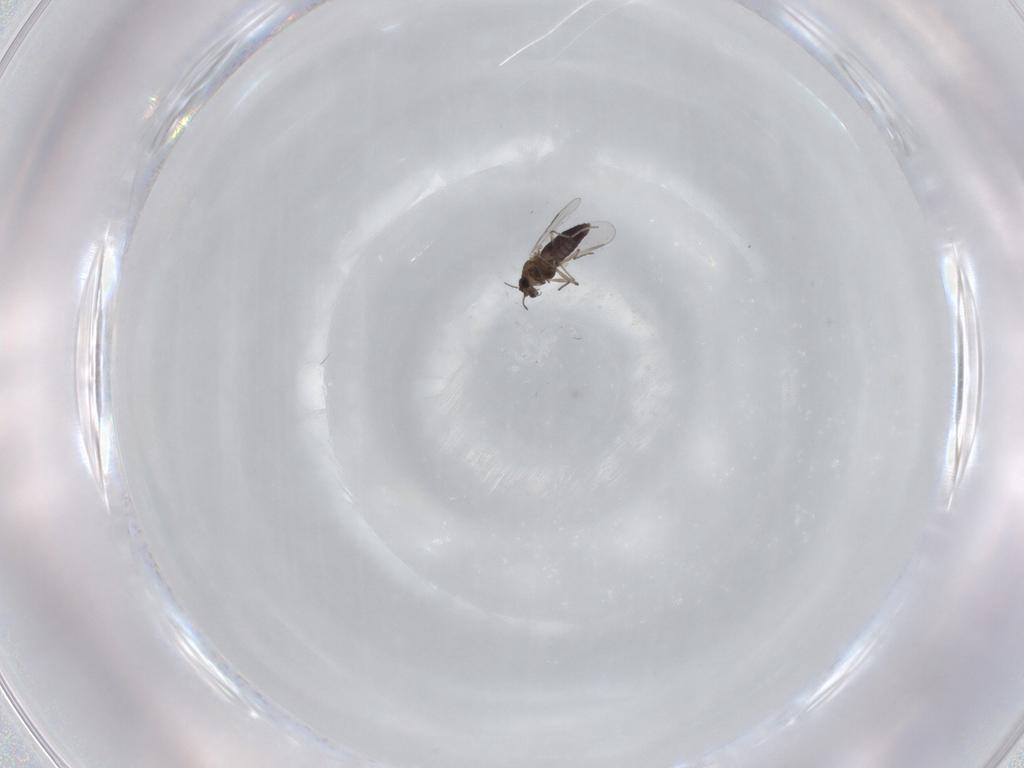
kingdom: Animalia
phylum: Arthropoda
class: Insecta
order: Diptera
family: Chironomidae
